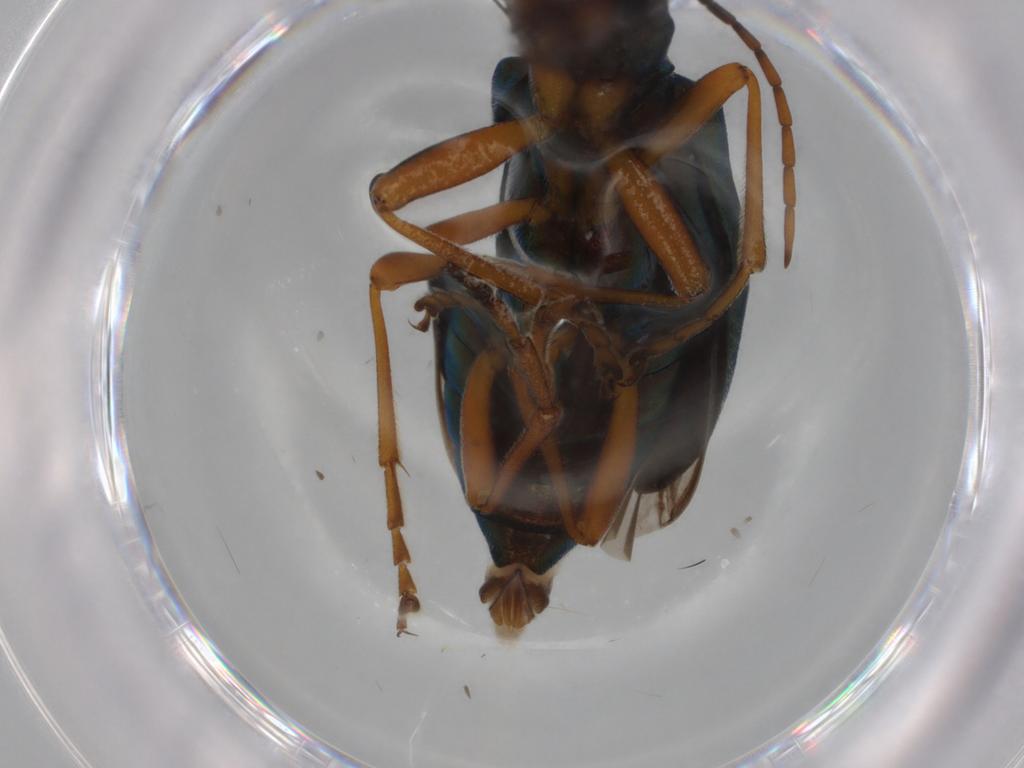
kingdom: Animalia
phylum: Arthropoda
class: Insecta
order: Coleoptera
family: Oedemeridae
